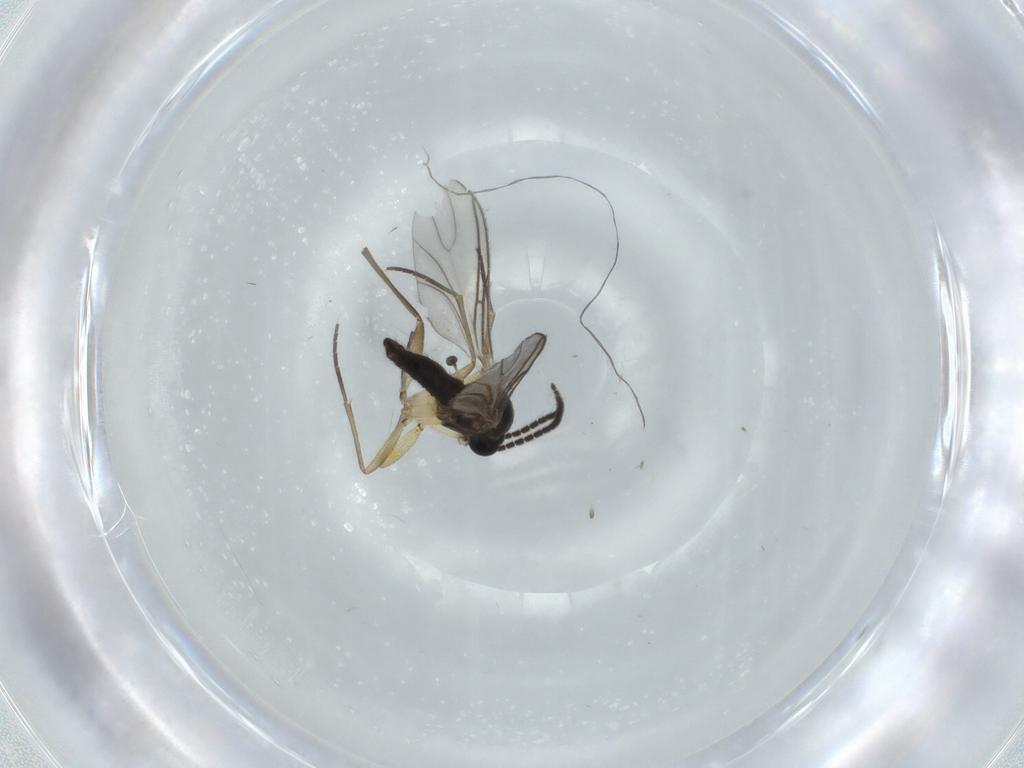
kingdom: Animalia
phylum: Arthropoda
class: Insecta
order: Diptera
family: Sciaridae
